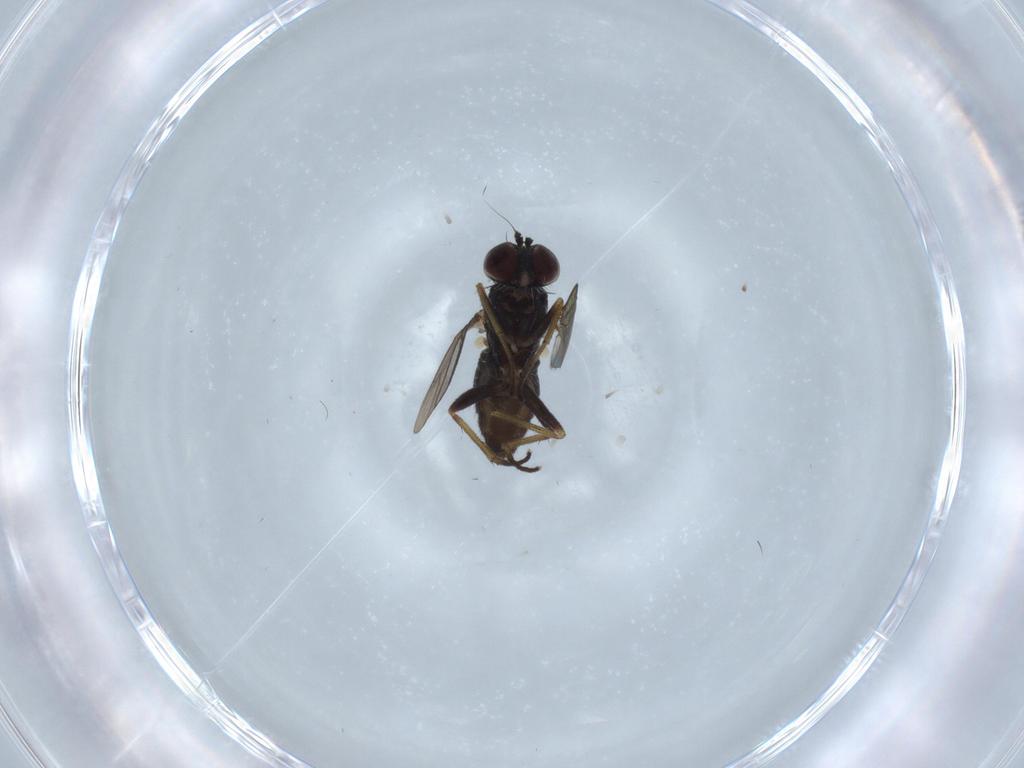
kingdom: Animalia
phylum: Arthropoda
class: Insecta
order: Diptera
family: Dolichopodidae
